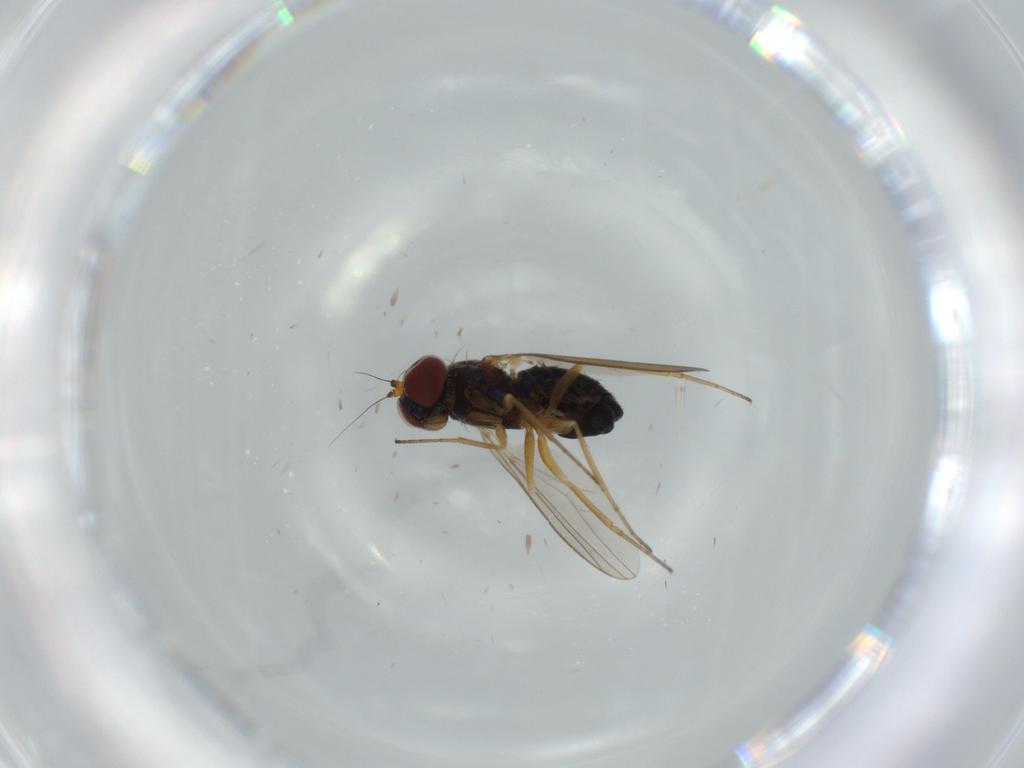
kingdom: Animalia
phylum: Arthropoda
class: Insecta
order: Diptera
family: Dolichopodidae
